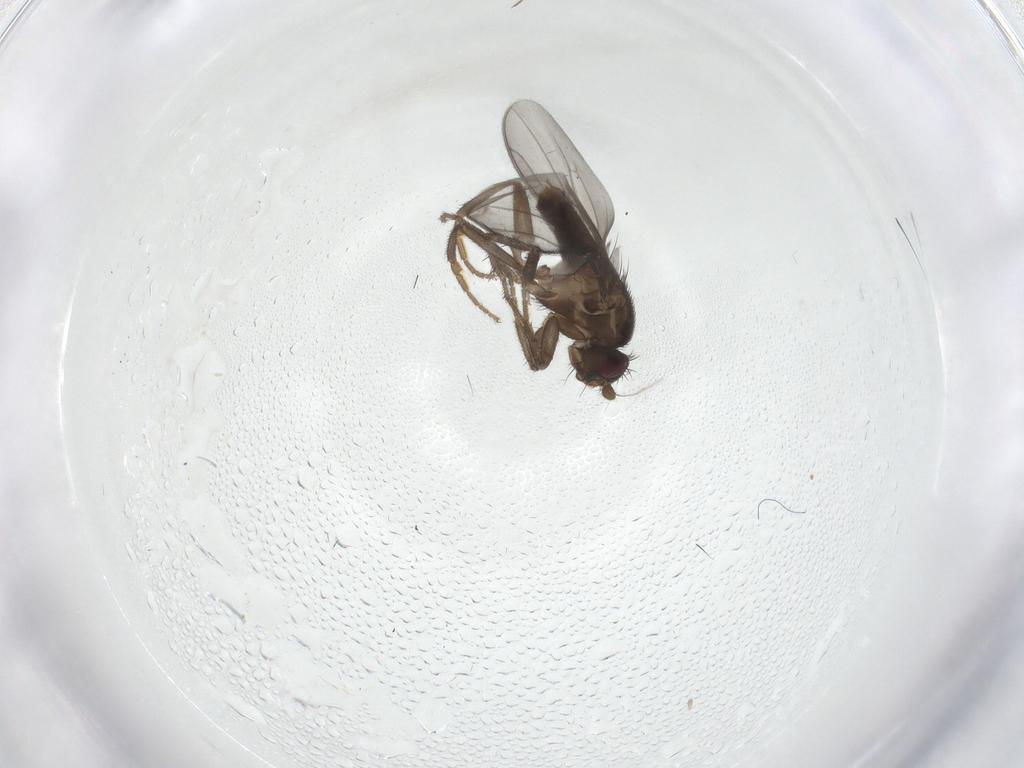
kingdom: Animalia
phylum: Arthropoda
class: Insecta
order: Diptera
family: Sphaeroceridae
